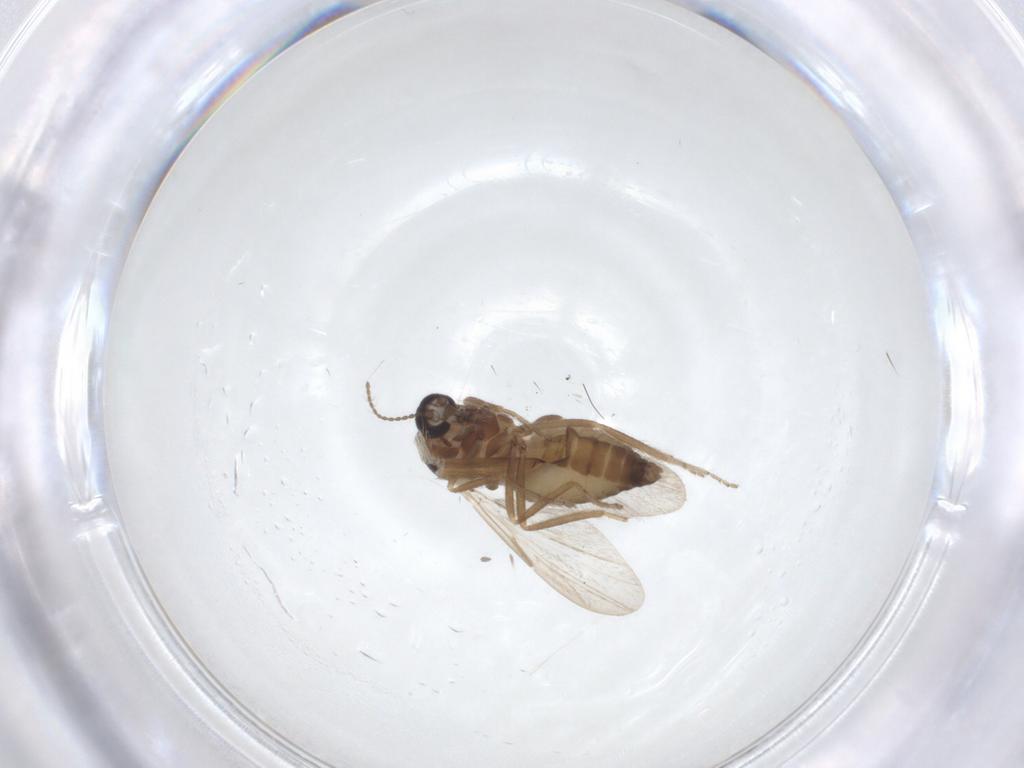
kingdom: Animalia
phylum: Arthropoda
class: Insecta
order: Diptera
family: Ceratopogonidae
